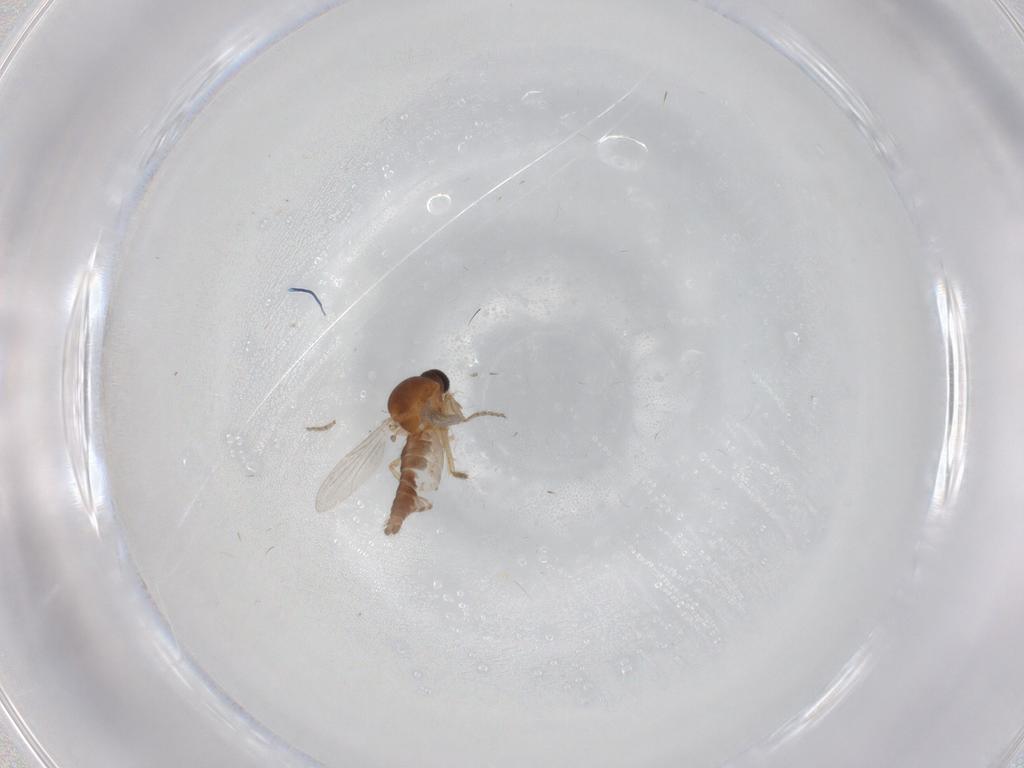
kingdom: Animalia
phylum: Arthropoda
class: Insecta
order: Diptera
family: Ceratopogonidae
